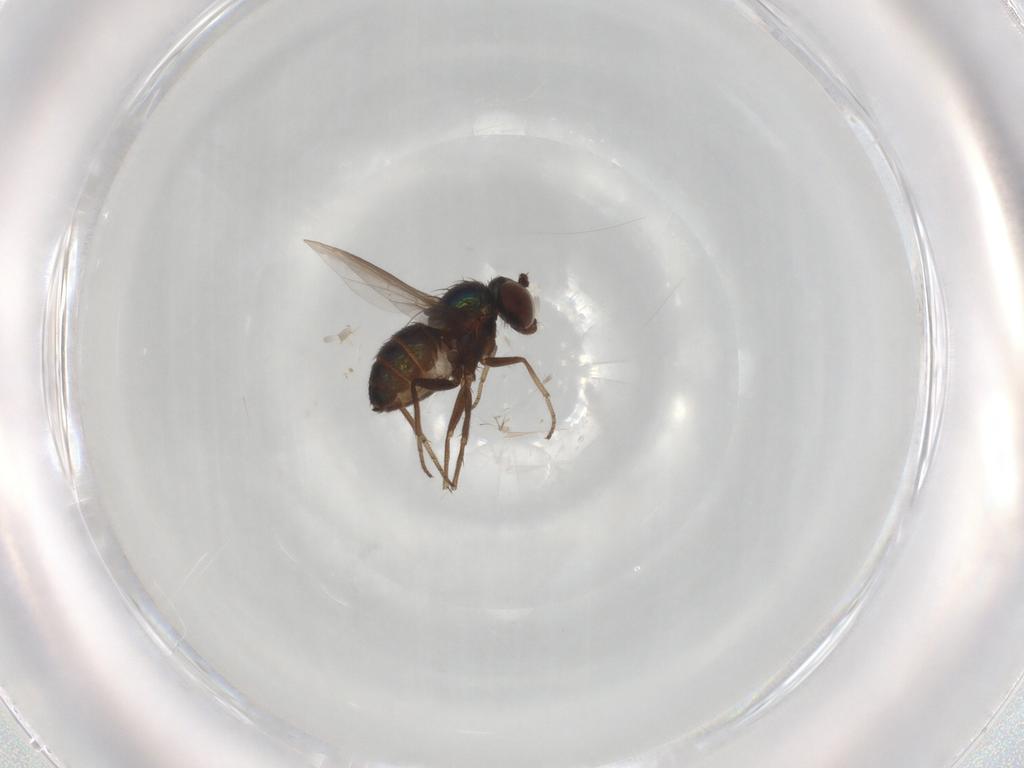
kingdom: Animalia
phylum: Arthropoda
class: Insecta
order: Diptera
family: Dolichopodidae
